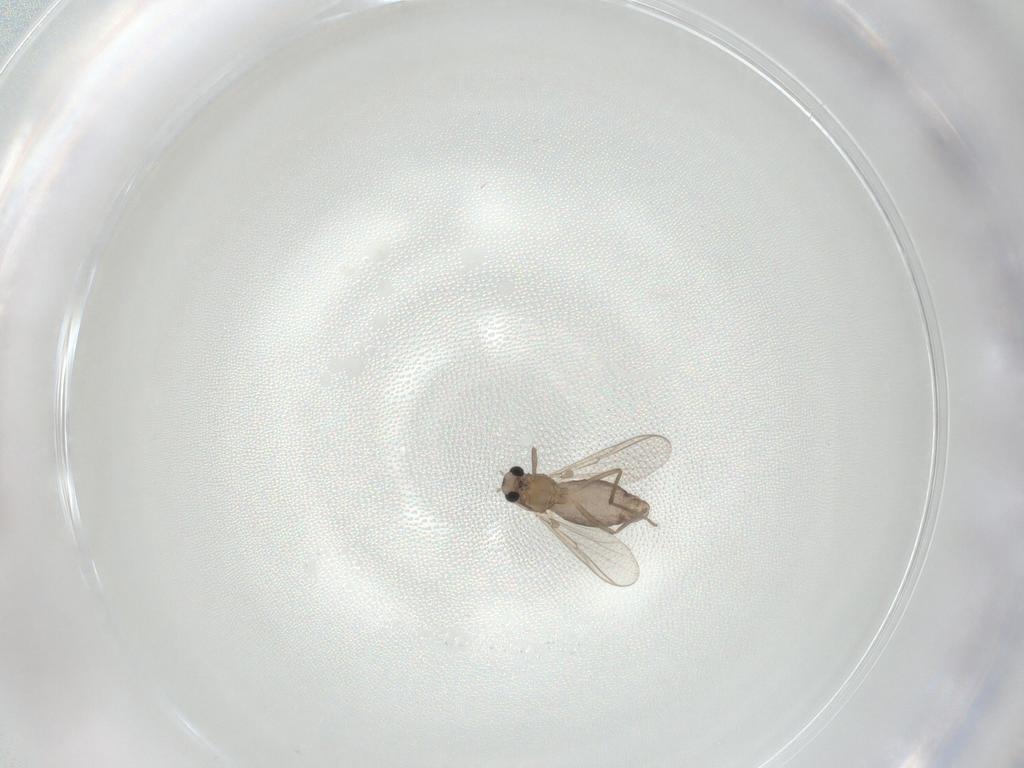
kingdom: Animalia
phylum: Arthropoda
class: Insecta
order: Diptera
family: Chironomidae
